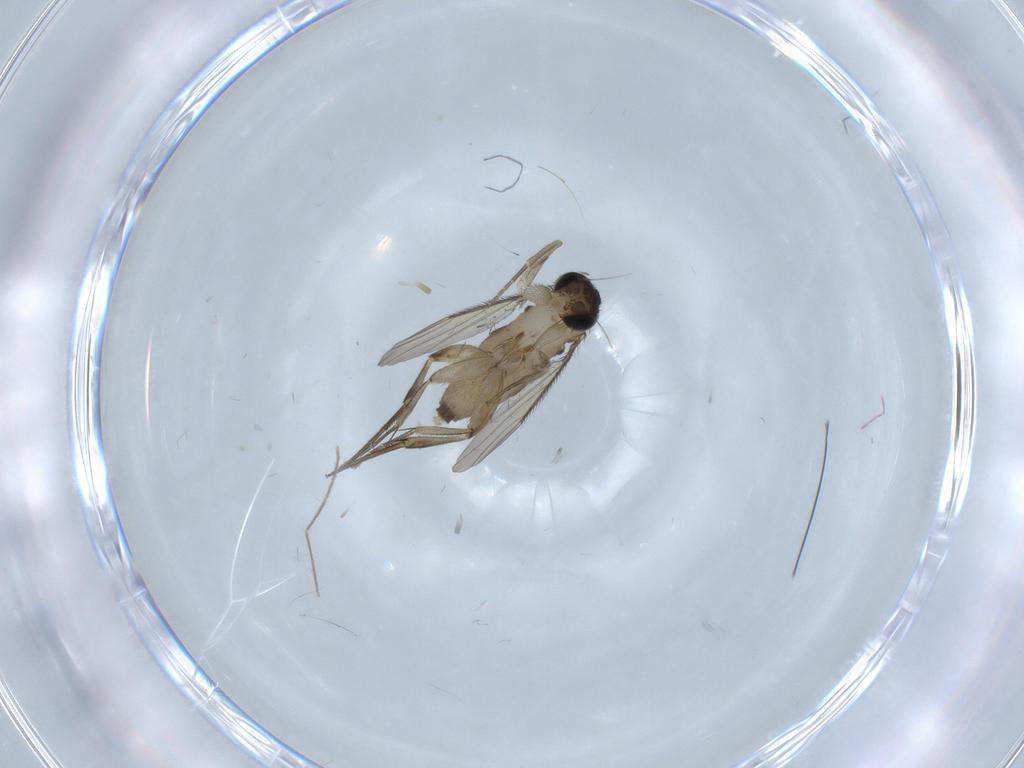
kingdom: Animalia
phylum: Arthropoda
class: Insecta
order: Diptera
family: Phoridae
